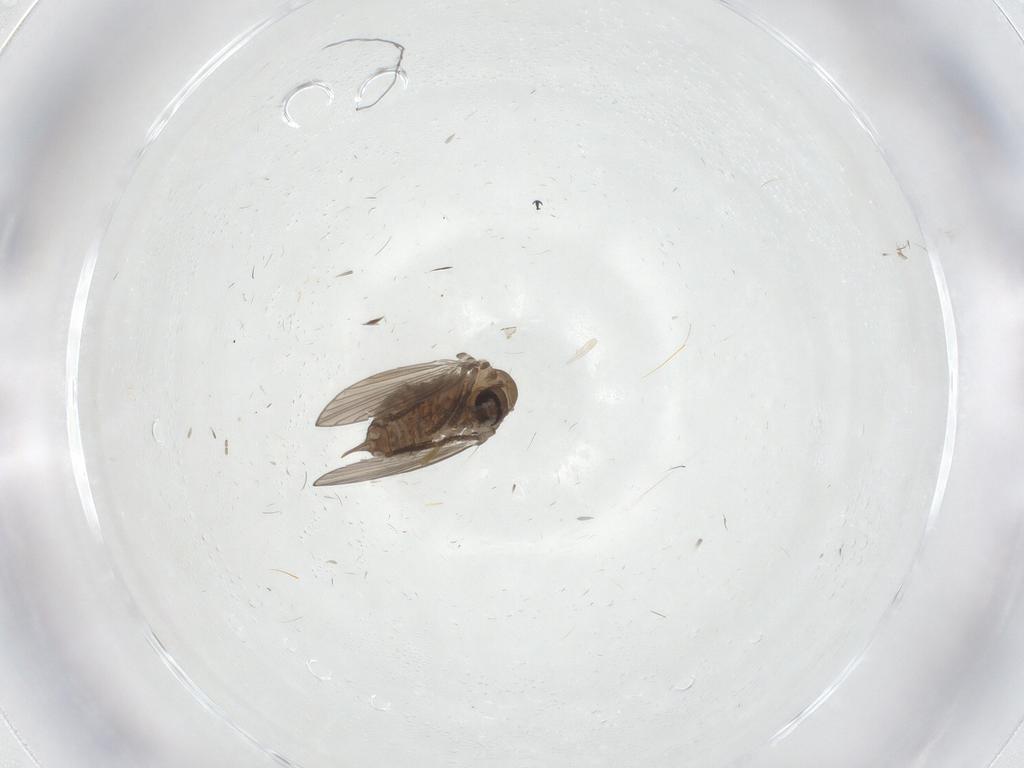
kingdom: Animalia
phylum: Arthropoda
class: Insecta
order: Diptera
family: Psychodidae
